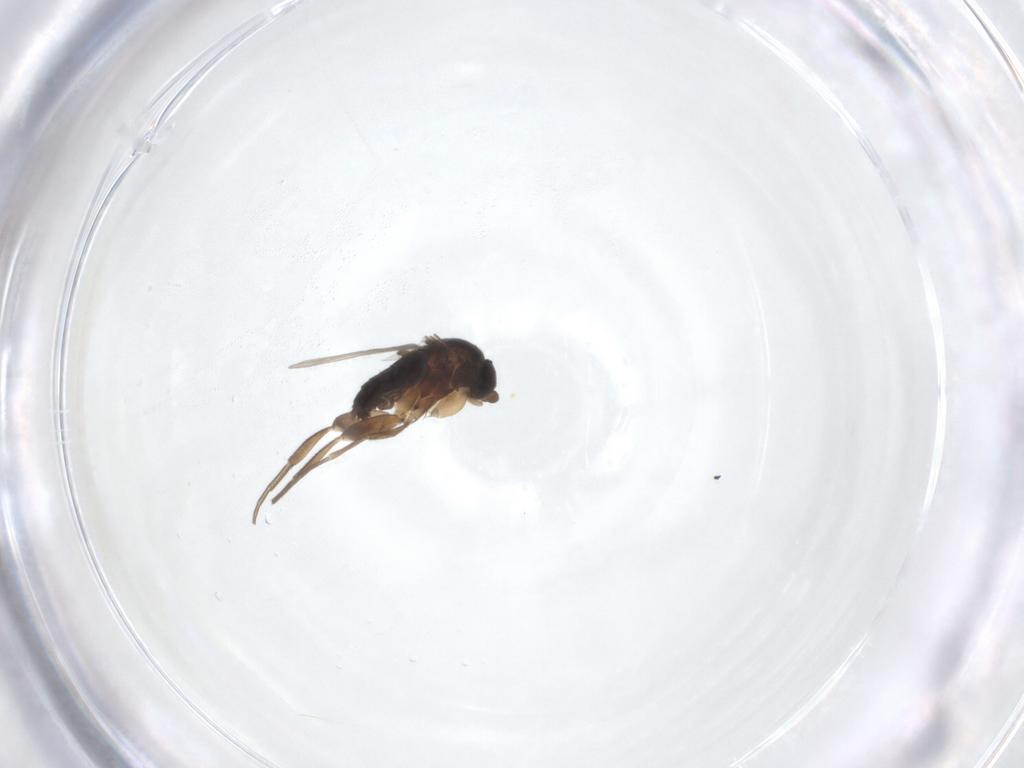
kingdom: Animalia
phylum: Arthropoda
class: Insecta
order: Diptera
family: Phoridae
